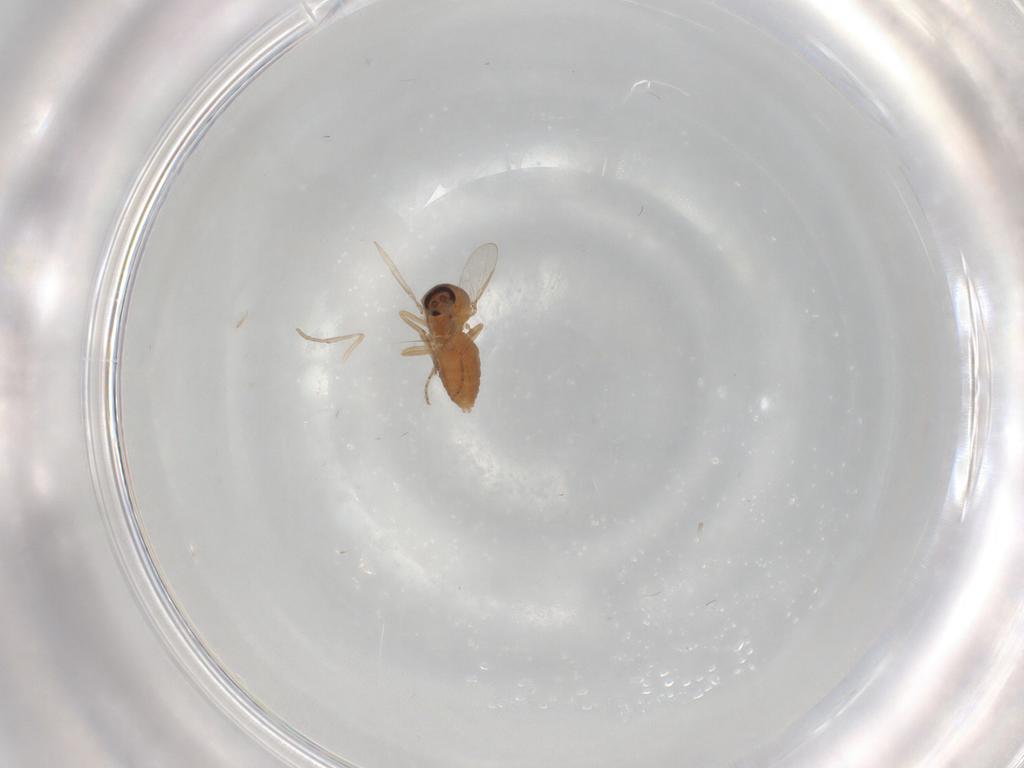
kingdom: Animalia
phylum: Arthropoda
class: Insecta
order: Diptera
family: Ceratopogonidae
